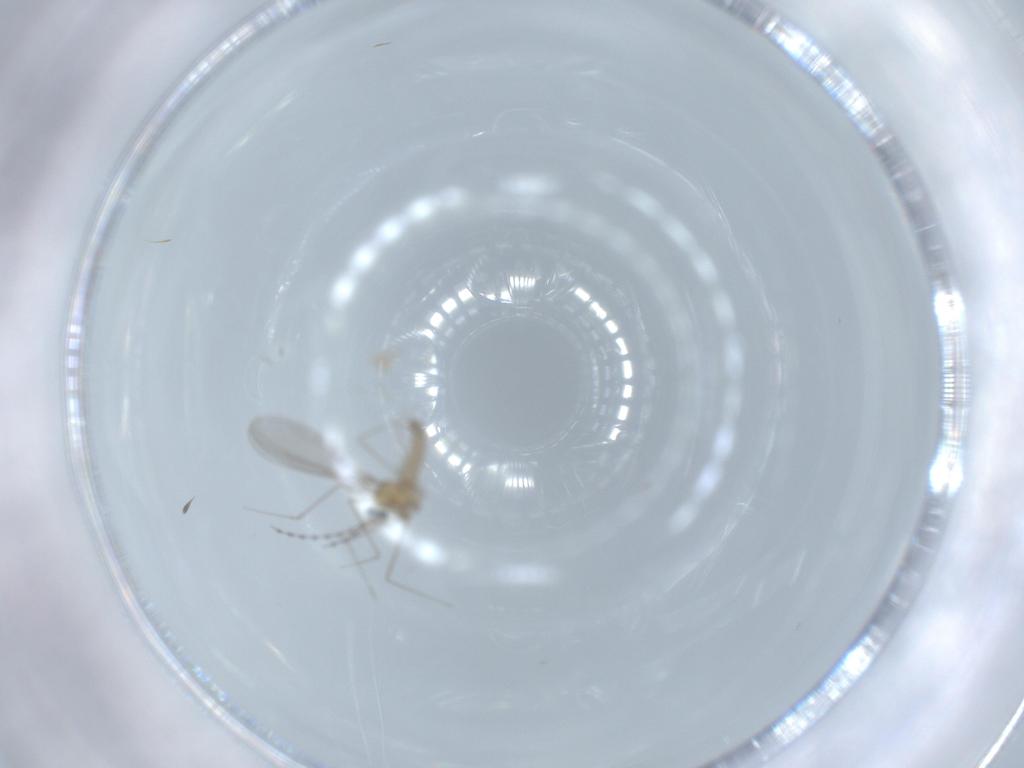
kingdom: Animalia
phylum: Arthropoda
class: Insecta
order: Diptera
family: Cecidomyiidae
